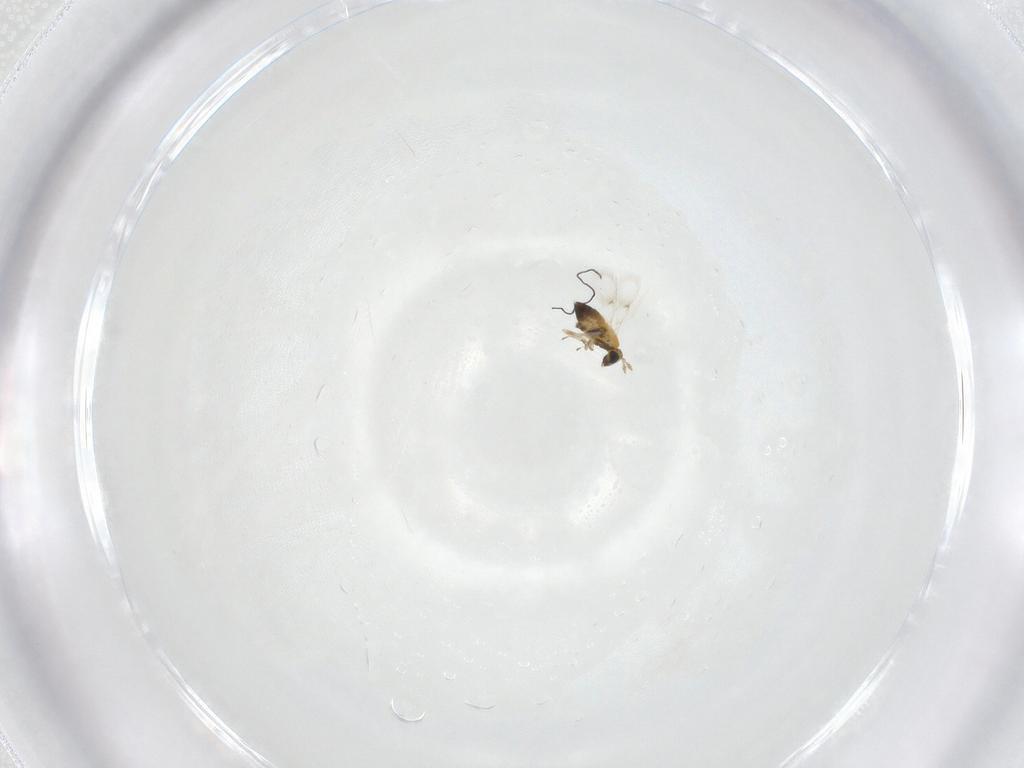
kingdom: Animalia
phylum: Arthropoda
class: Insecta
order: Hymenoptera
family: Trichogrammatidae
